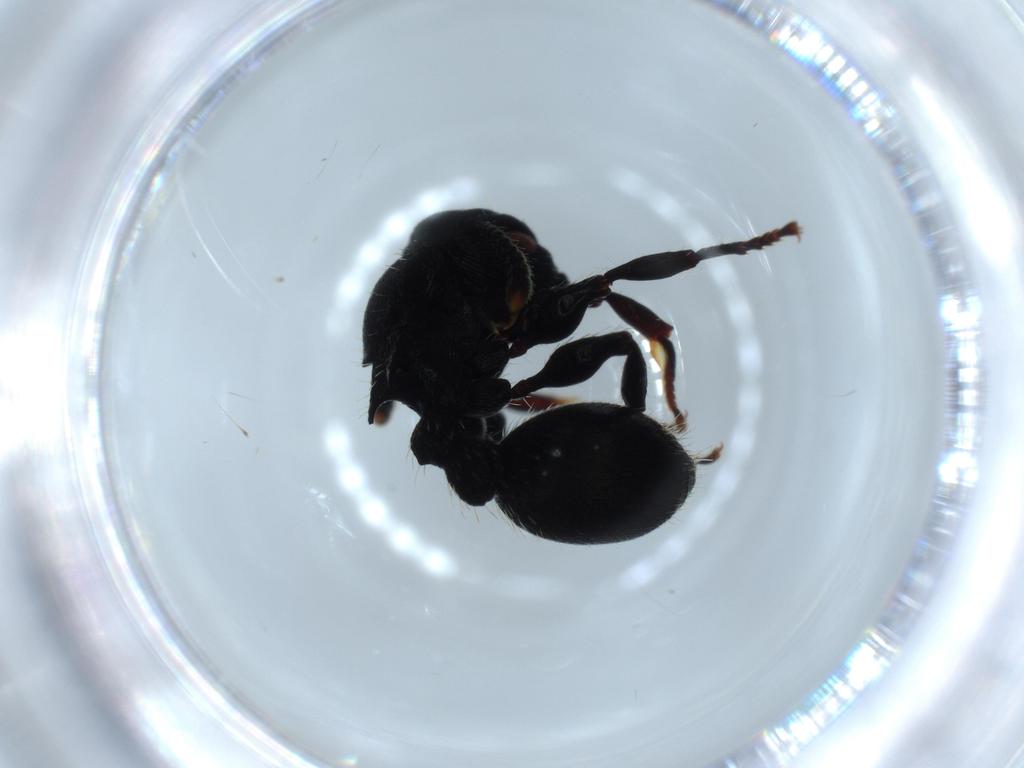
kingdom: Animalia
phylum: Arthropoda
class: Insecta
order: Hymenoptera
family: Formicidae
